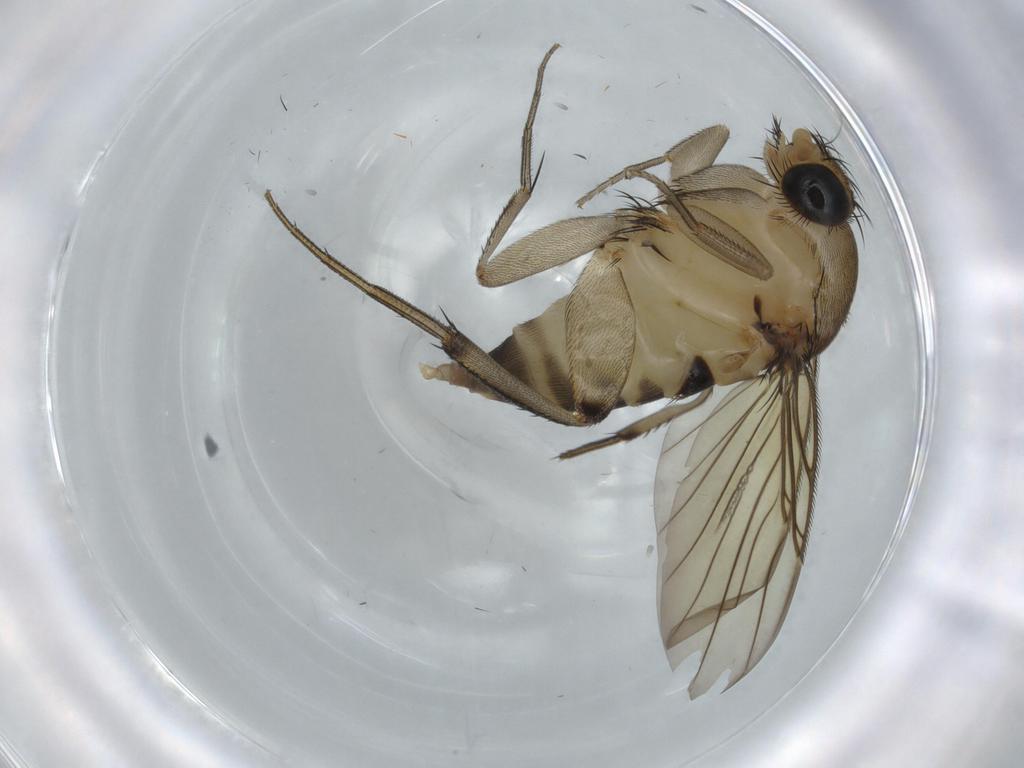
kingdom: Animalia
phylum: Arthropoda
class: Insecta
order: Diptera
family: Phoridae
